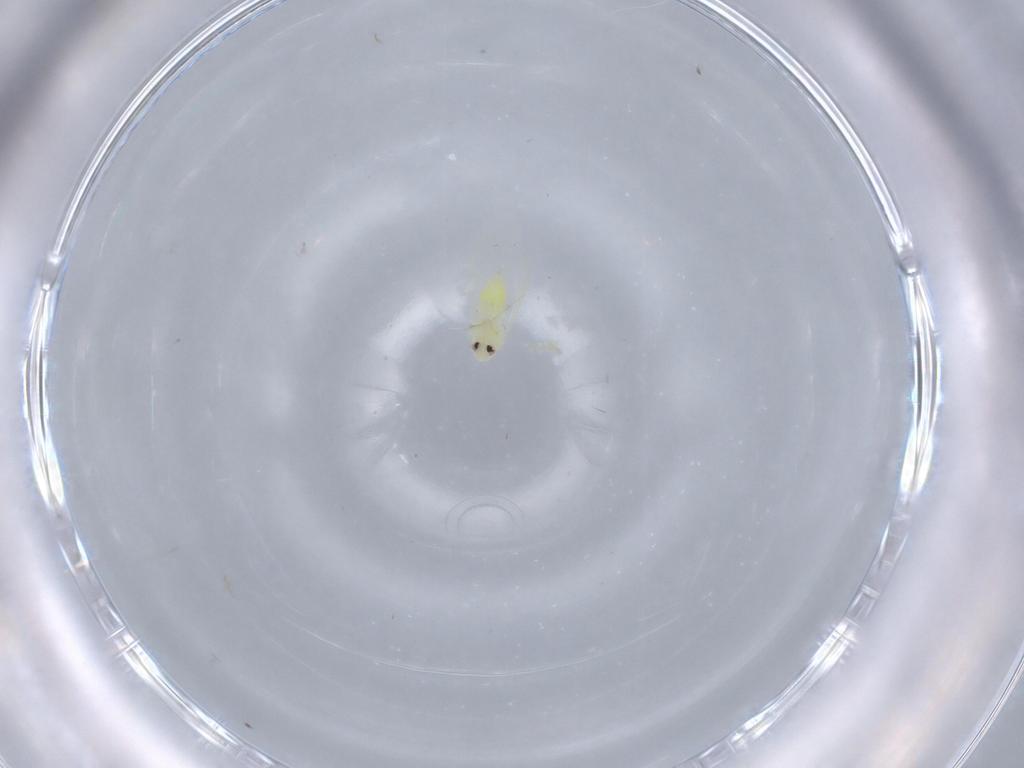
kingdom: Animalia
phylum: Arthropoda
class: Insecta
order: Hemiptera
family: Aleyrodidae
